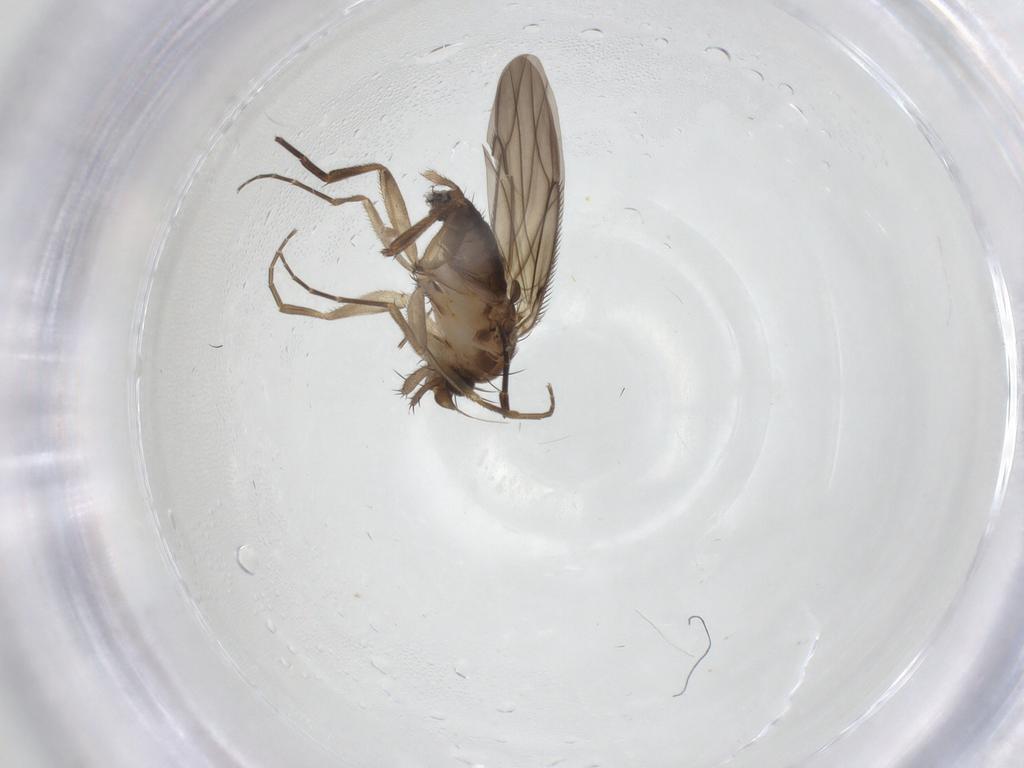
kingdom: Animalia
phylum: Arthropoda
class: Insecta
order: Diptera
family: Phoridae
